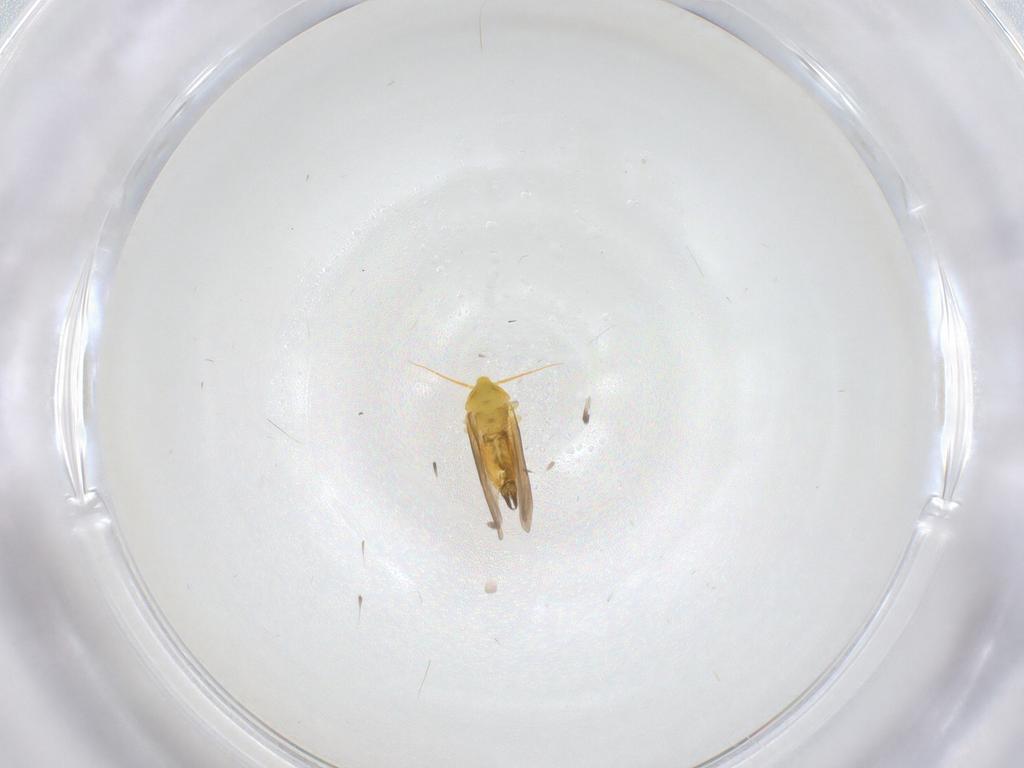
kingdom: Animalia
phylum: Arthropoda
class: Insecta
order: Hemiptera
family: Aleyrodidae
